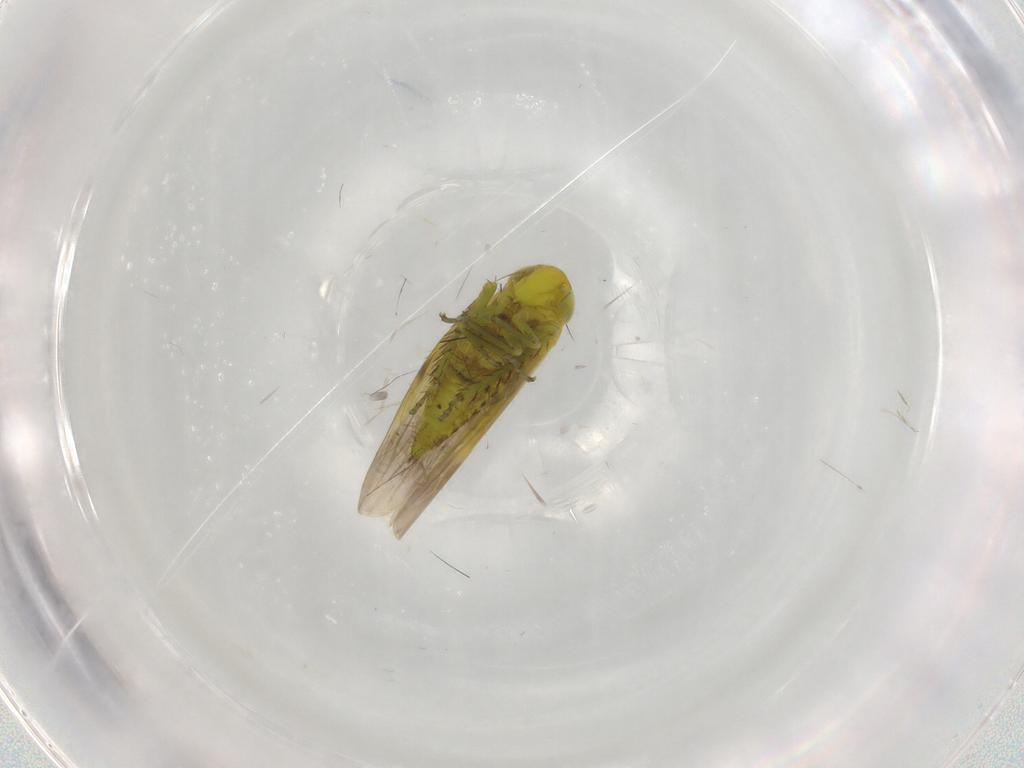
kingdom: Animalia
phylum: Arthropoda
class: Insecta
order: Hemiptera
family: Cicadellidae
